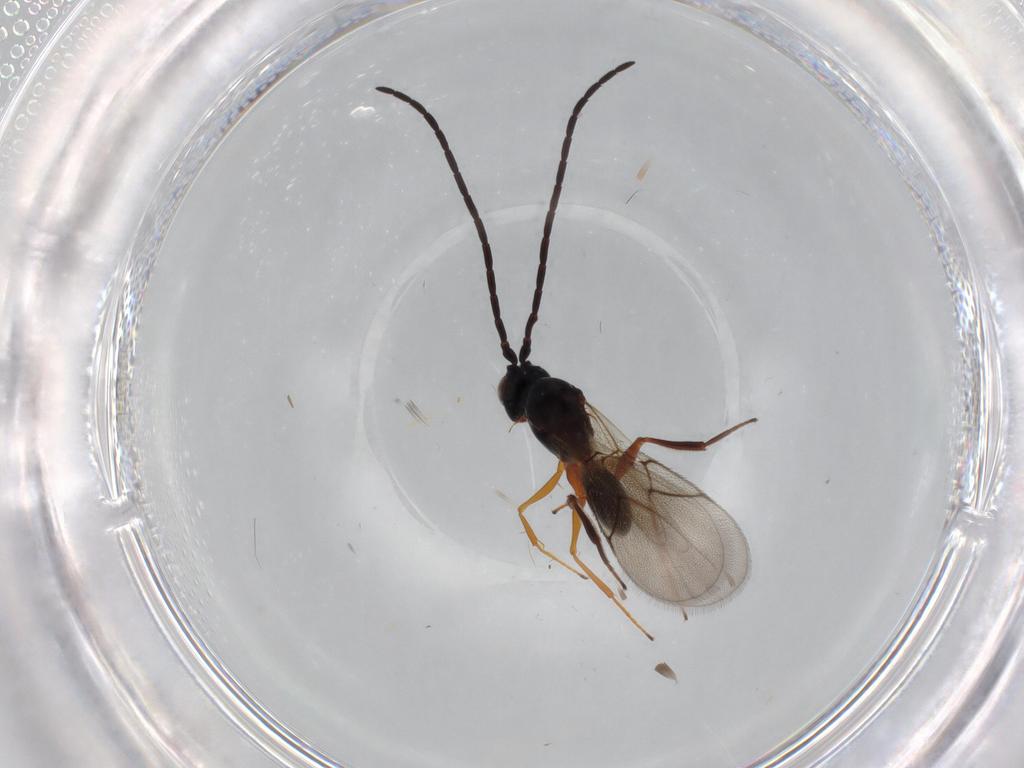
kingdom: Animalia
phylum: Arthropoda
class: Insecta
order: Hymenoptera
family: Figitidae
